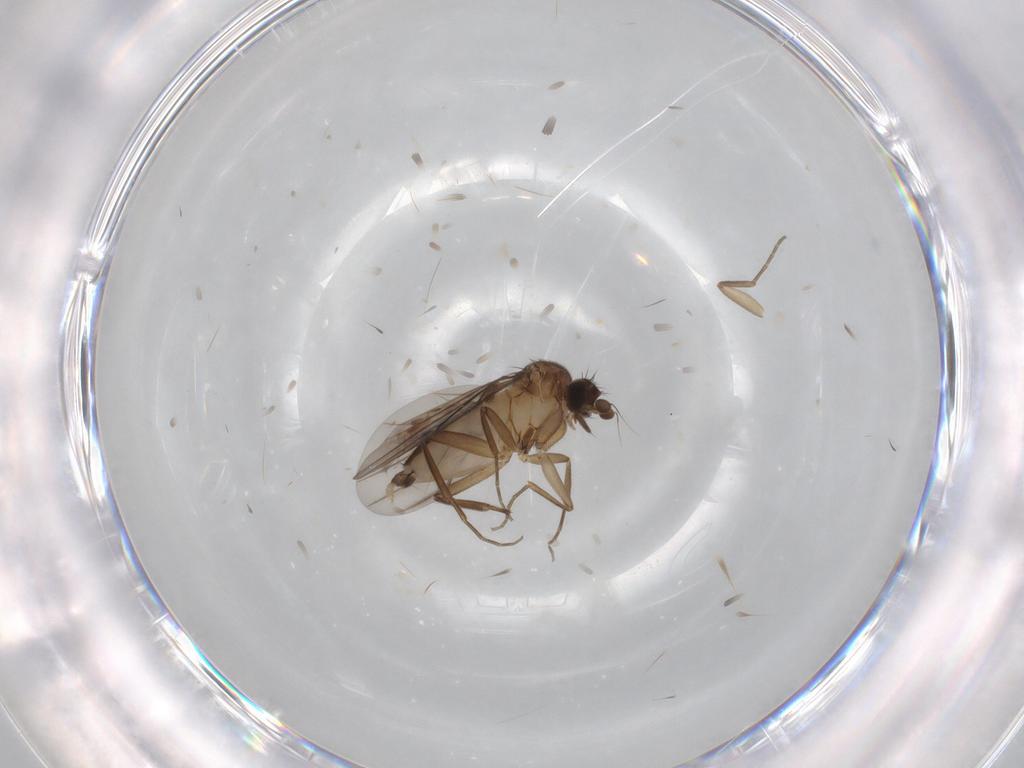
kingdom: Animalia
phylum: Arthropoda
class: Insecta
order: Diptera
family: Phoridae
